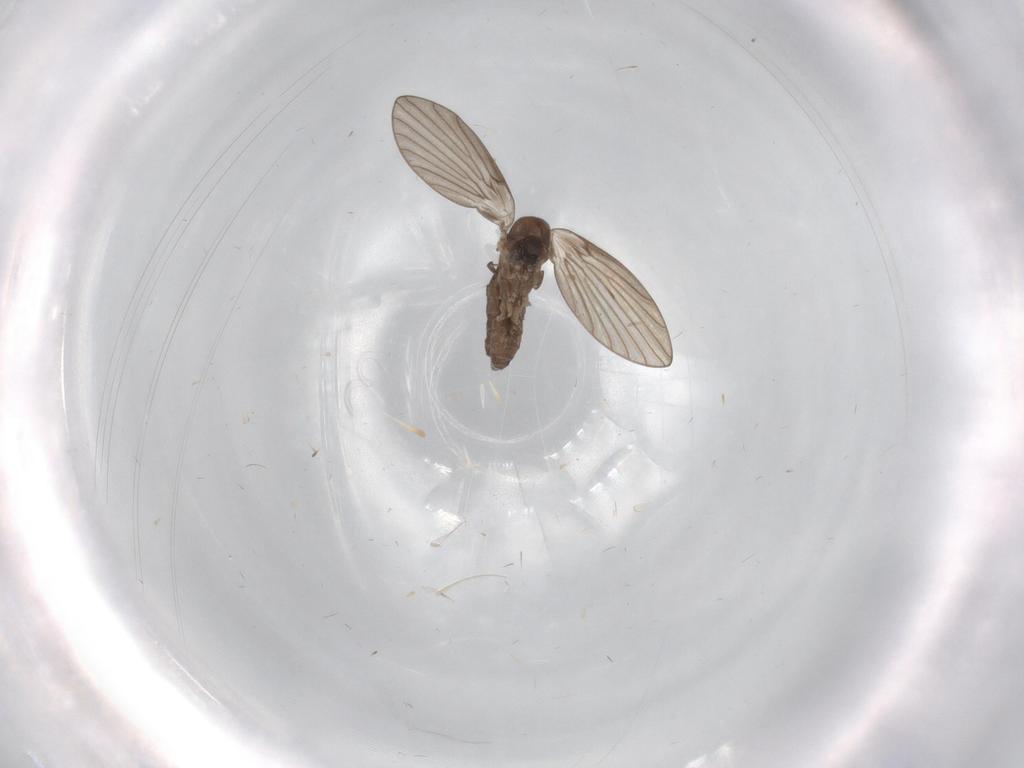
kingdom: Animalia
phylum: Arthropoda
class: Insecta
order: Diptera
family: Psychodidae
